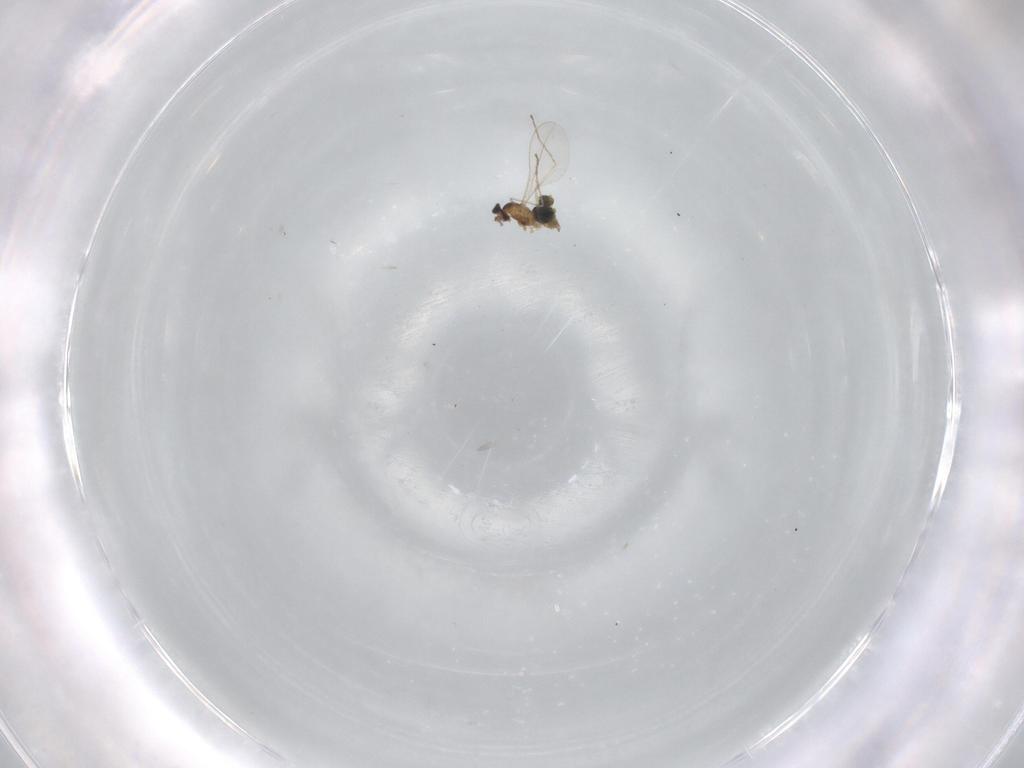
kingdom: Animalia
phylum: Arthropoda
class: Insecta
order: Diptera
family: Cecidomyiidae
